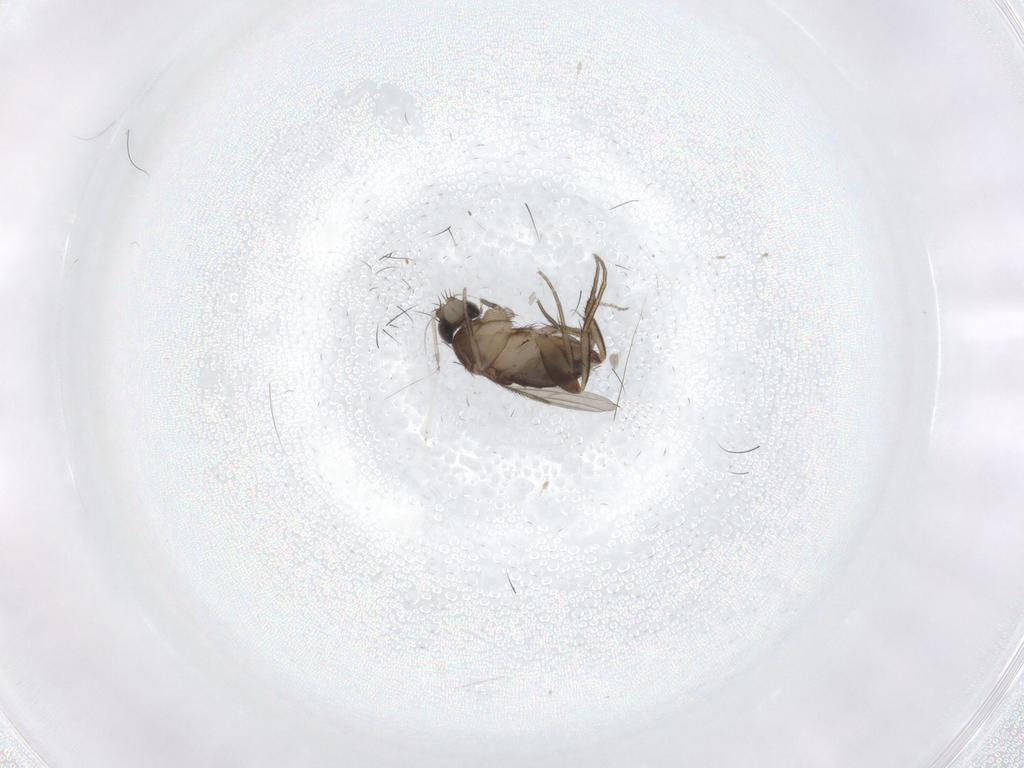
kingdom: Animalia
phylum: Arthropoda
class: Insecta
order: Diptera
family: Phoridae
